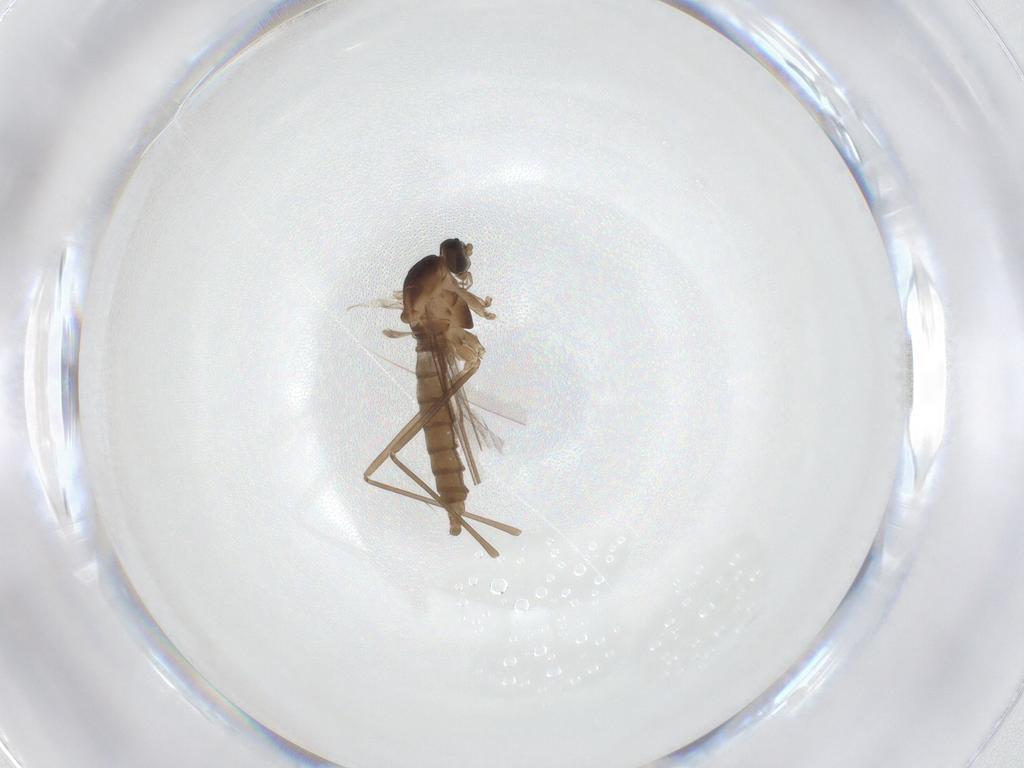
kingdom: Animalia
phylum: Arthropoda
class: Insecta
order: Diptera
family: Cecidomyiidae
